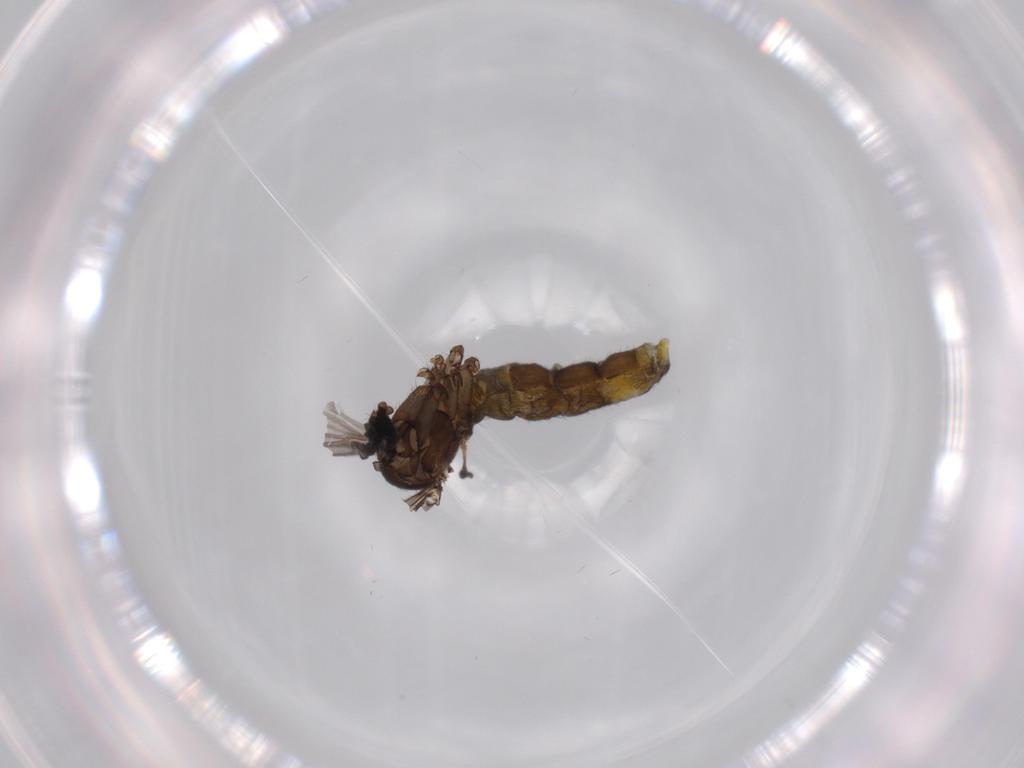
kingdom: Animalia
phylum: Arthropoda
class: Insecta
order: Diptera
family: Sciaridae
